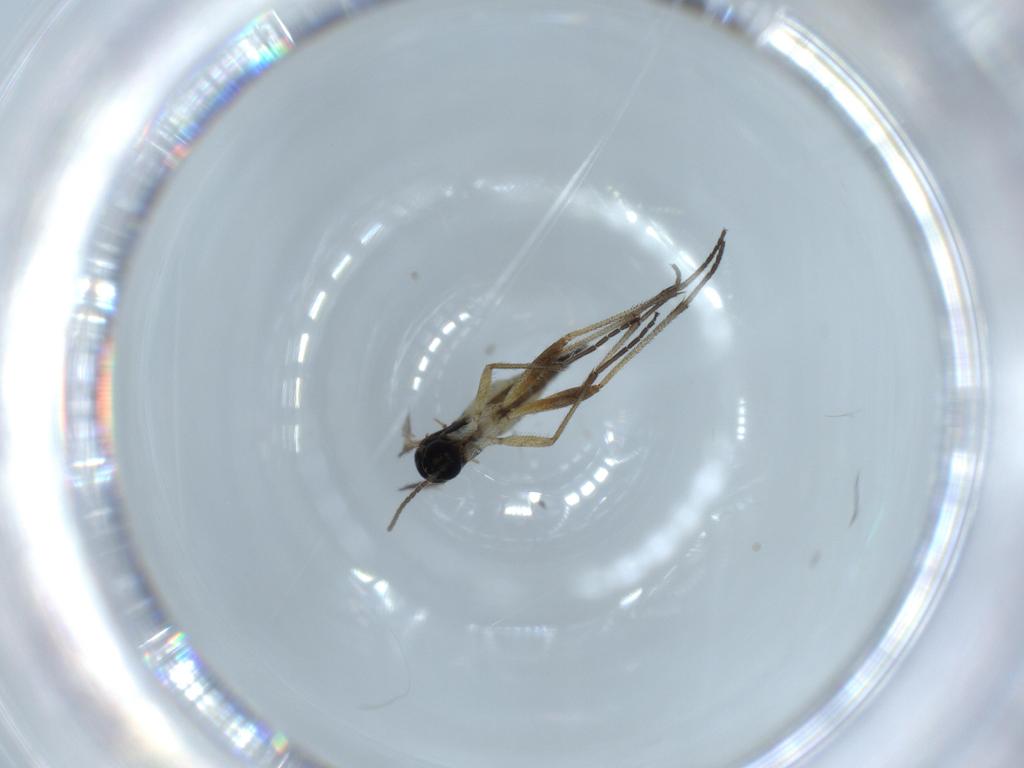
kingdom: Animalia
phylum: Arthropoda
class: Insecta
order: Diptera
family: Sciaridae
